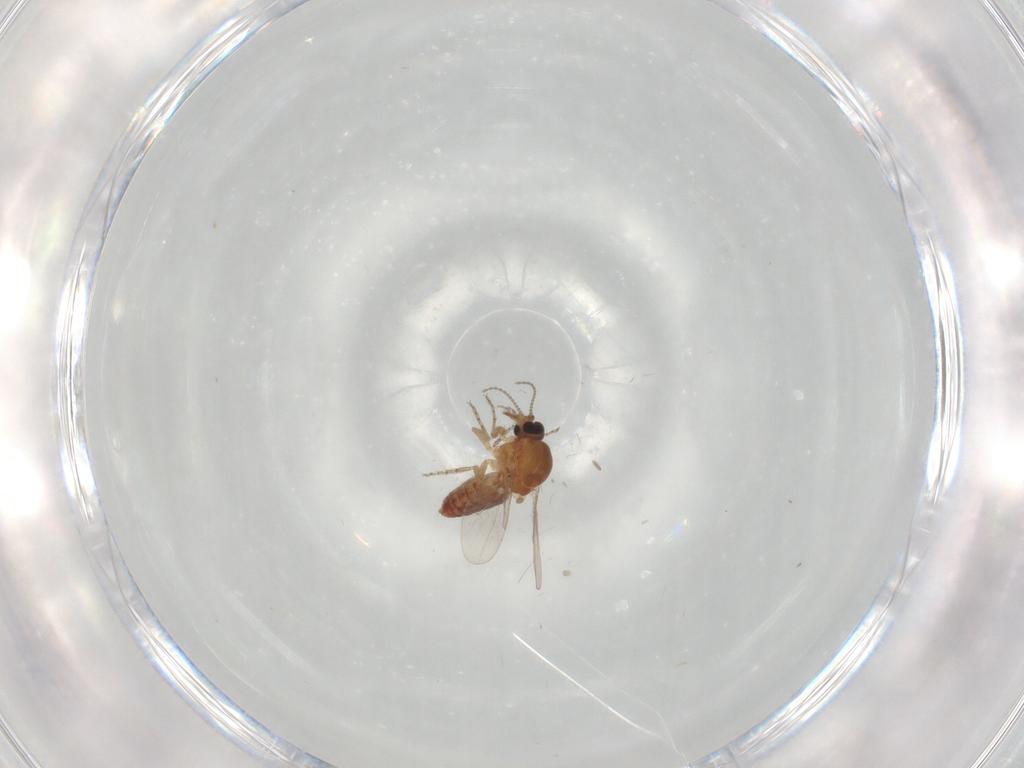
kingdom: Animalia
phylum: Arthropoda
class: Insecta
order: Diptera
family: Ceratopogonidae
